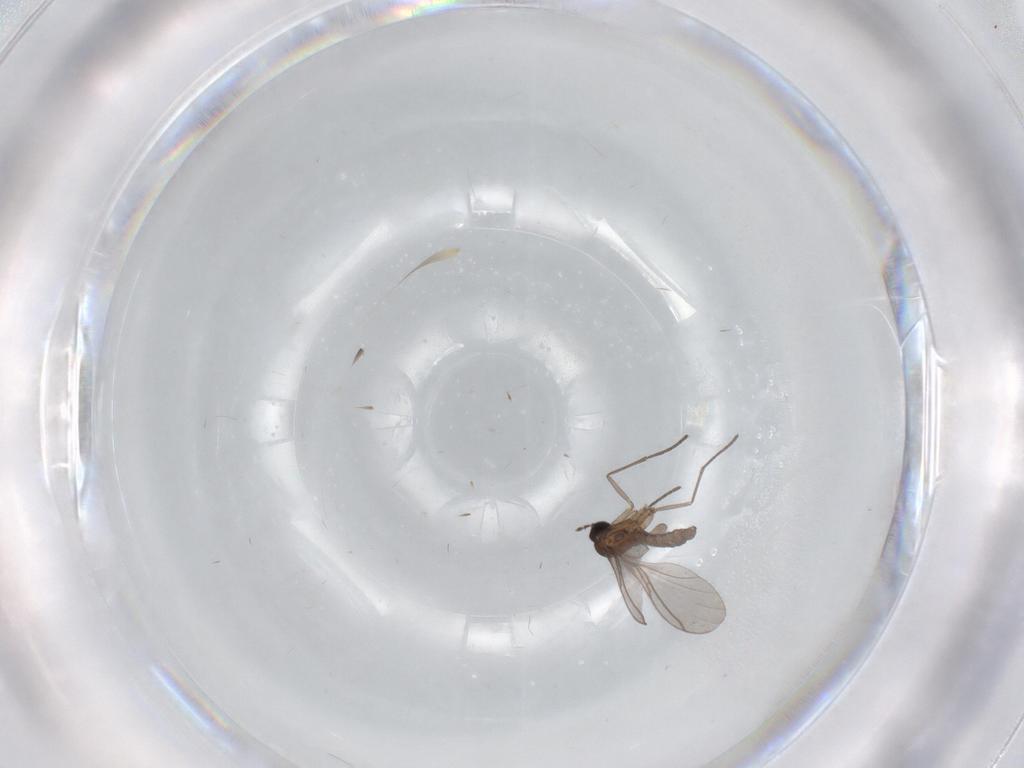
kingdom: Animalia
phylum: Arthropoda
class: Insecta
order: Diptera
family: Sciaridae
